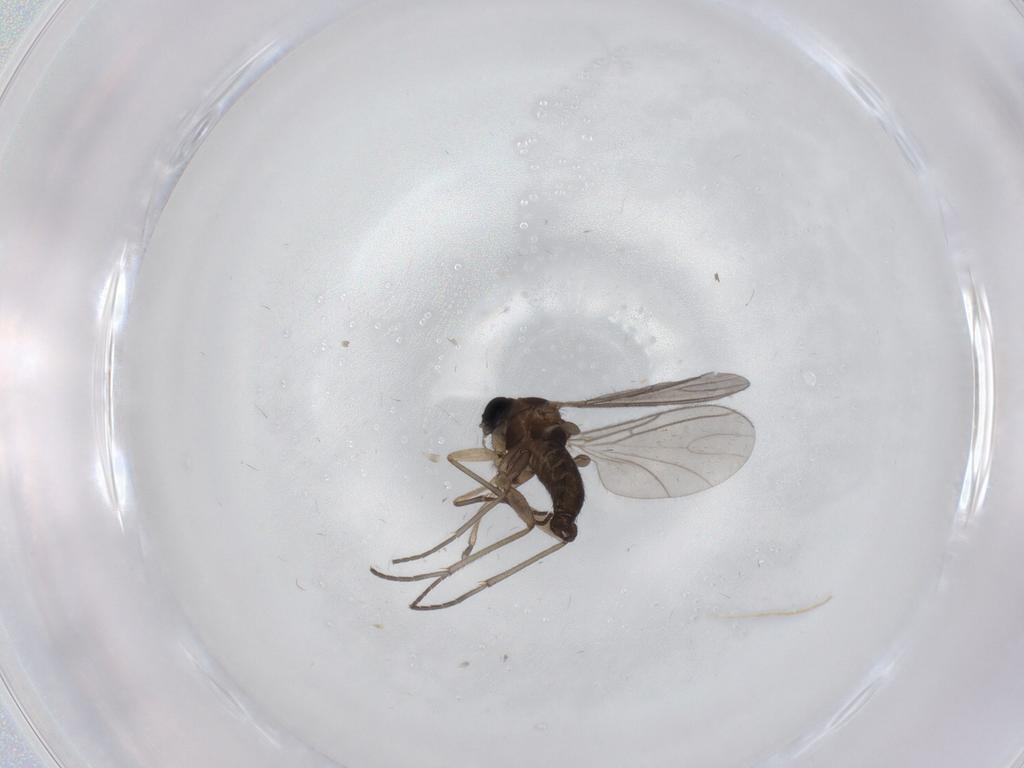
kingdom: Animalia
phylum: Arthropoda
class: Insecta
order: Diptera
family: Sciaridae
